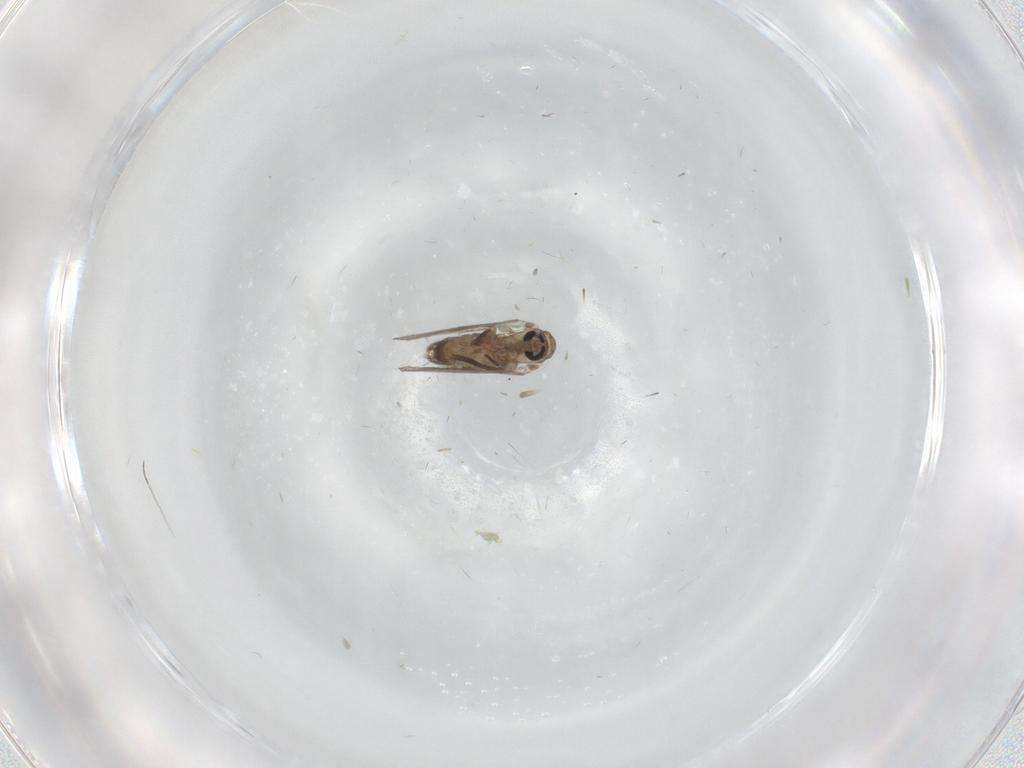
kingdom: Animalia
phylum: Arthropoda
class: Insecta
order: Diptera
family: Psychodidae
